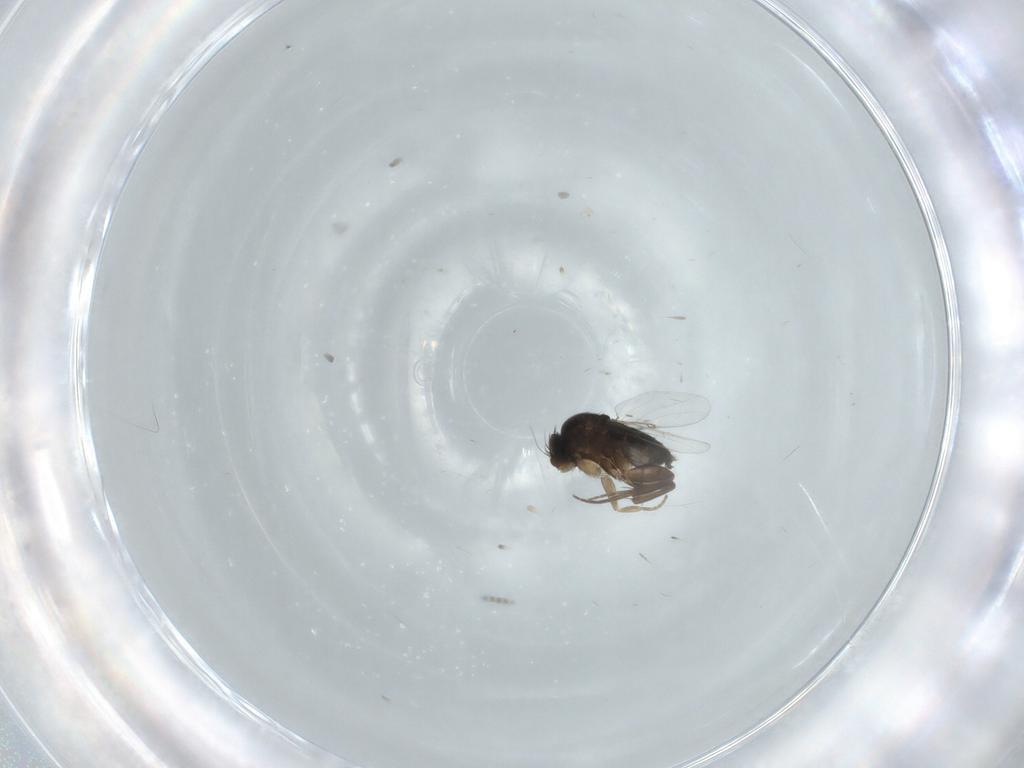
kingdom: Animalia
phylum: Arthropoda
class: Insecta
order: Diptera
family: Phoridae
